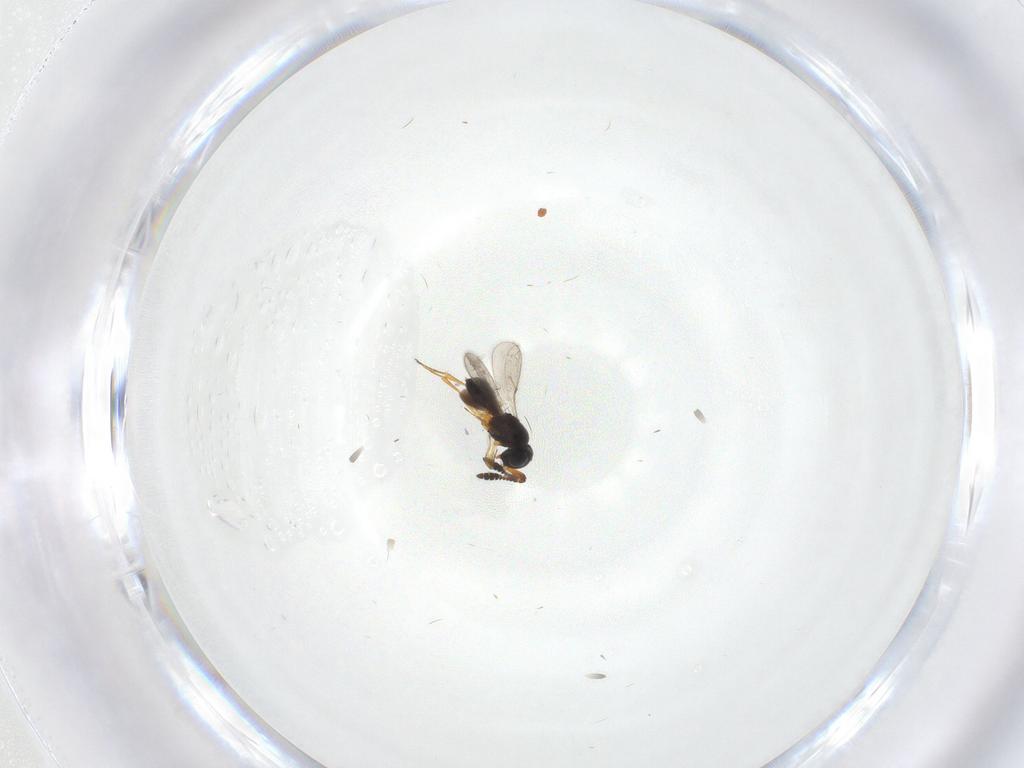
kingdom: Animalia
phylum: Arthropoda
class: Insecta
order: Hymenoptera
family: Scelionidae
